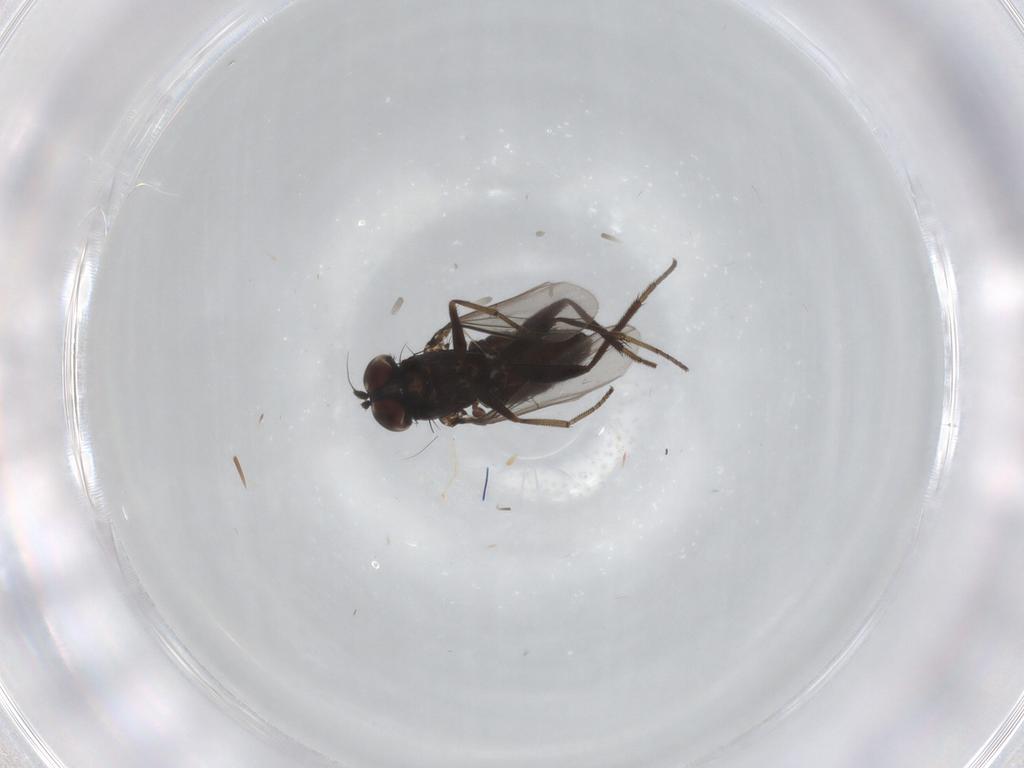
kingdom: Animalia
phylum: Arthropoda
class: Insecta
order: Diptera
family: Dolichopodidae
